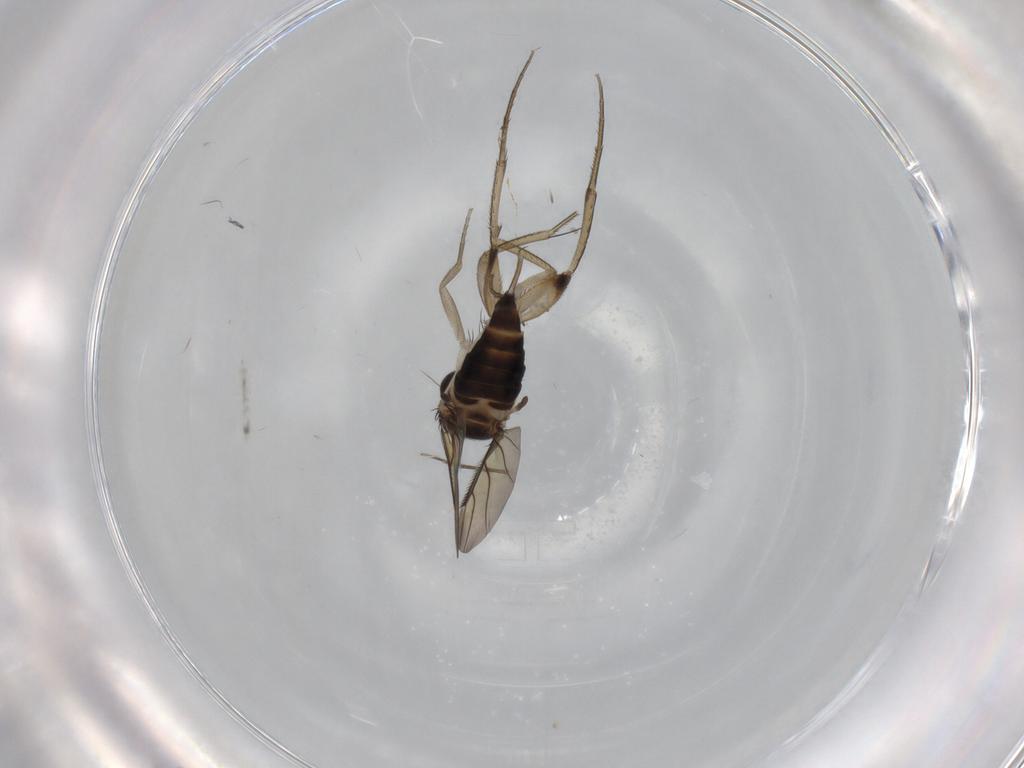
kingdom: Animalia
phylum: Arthropoda
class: Insecta
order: Diptera
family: Phoridae
